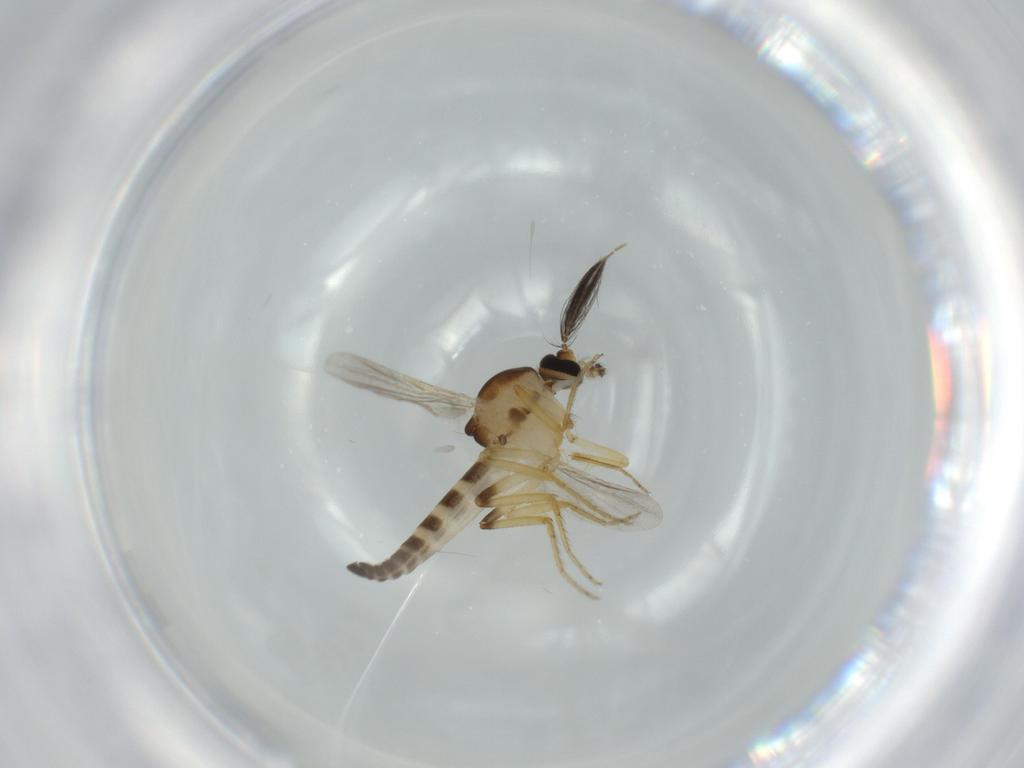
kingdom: Animalia
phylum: Arthropoda
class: Insecta
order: Diptera
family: Ceratopogonidae
